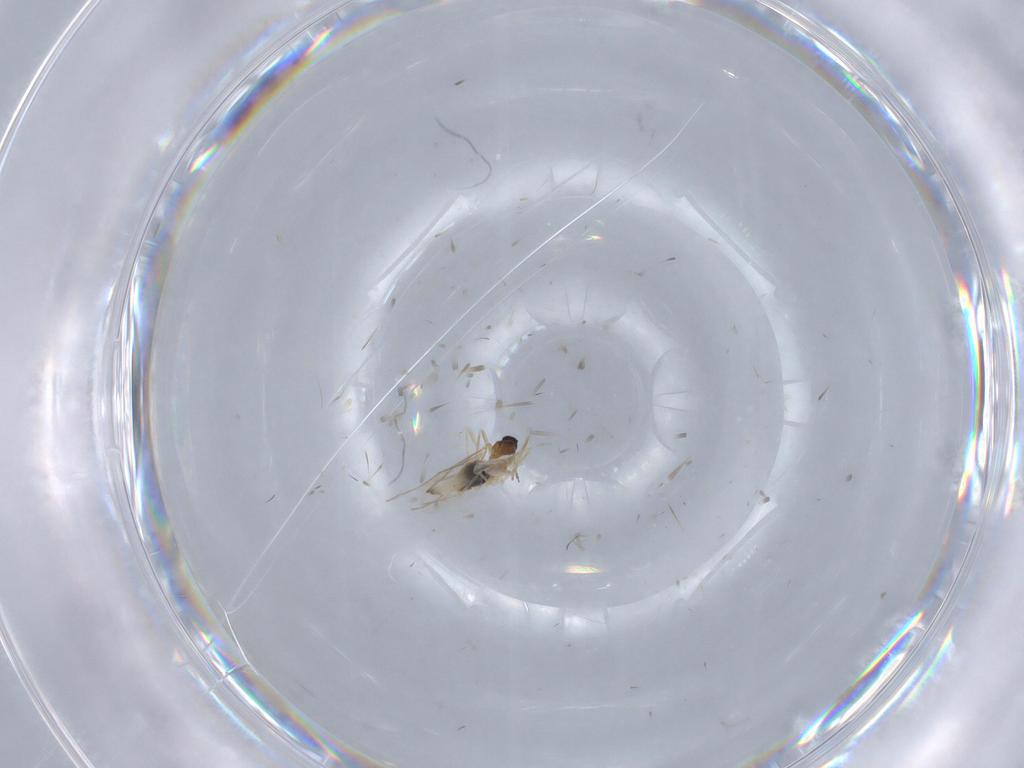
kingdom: Animalia
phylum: Arthropoda
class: Insecta
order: Diptera
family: Cecidomyiidae
